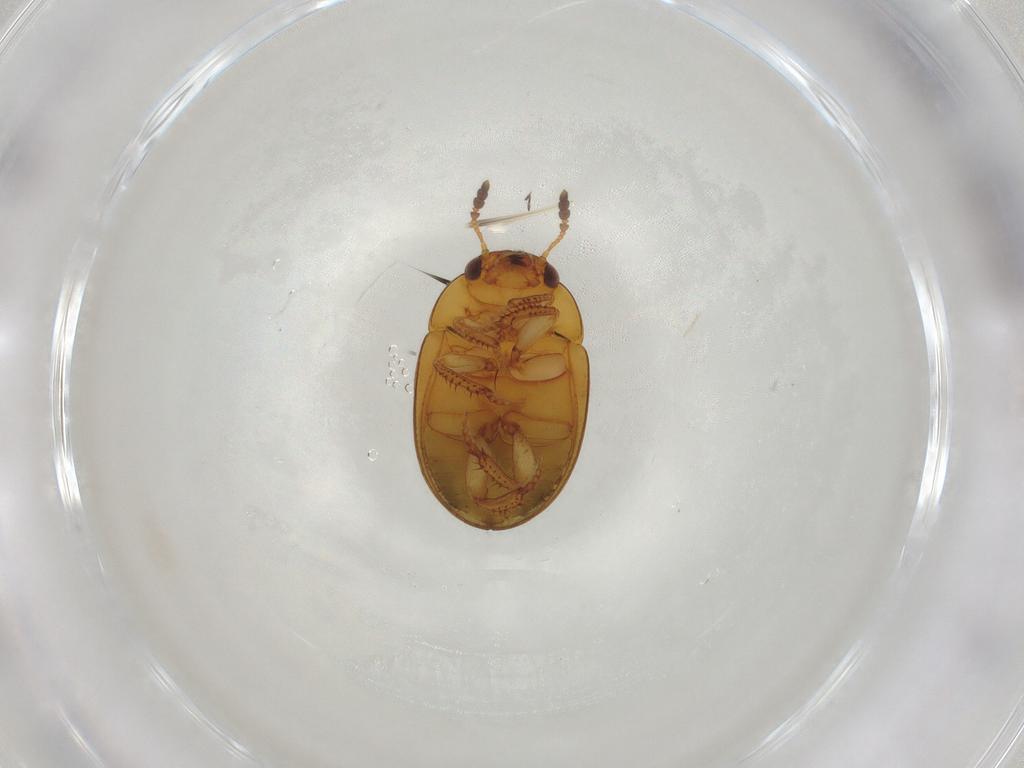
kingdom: Animalia
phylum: Arthropoda
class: Insecta
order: Coleoptera
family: Leiodidae
